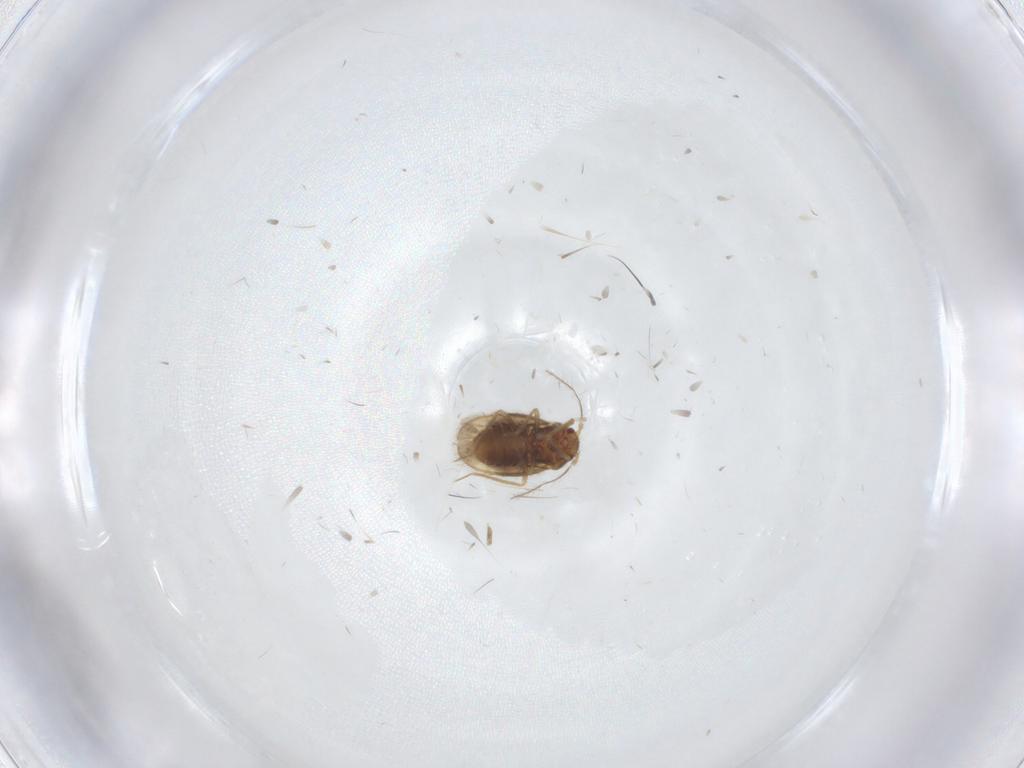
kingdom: Animalia
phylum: Arthropoda
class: Insecta
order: Hemiptera
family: Schizopteridae
